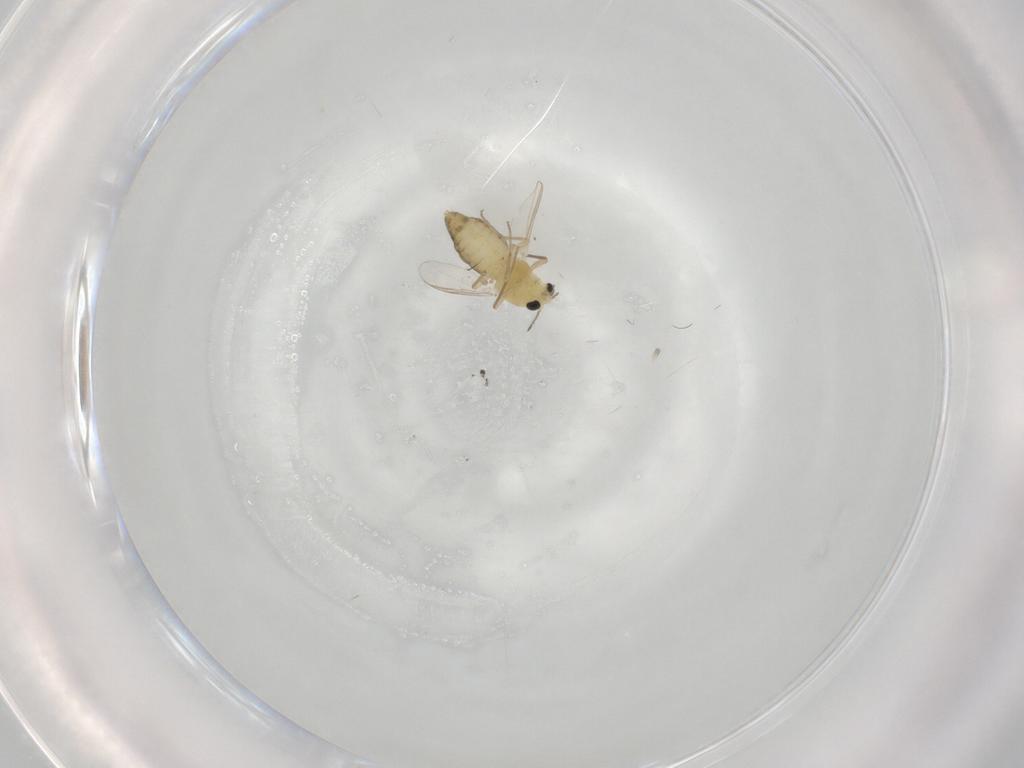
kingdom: Animalia
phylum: Arthropoda
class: Insecta
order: Diptera
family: Chironomidae
